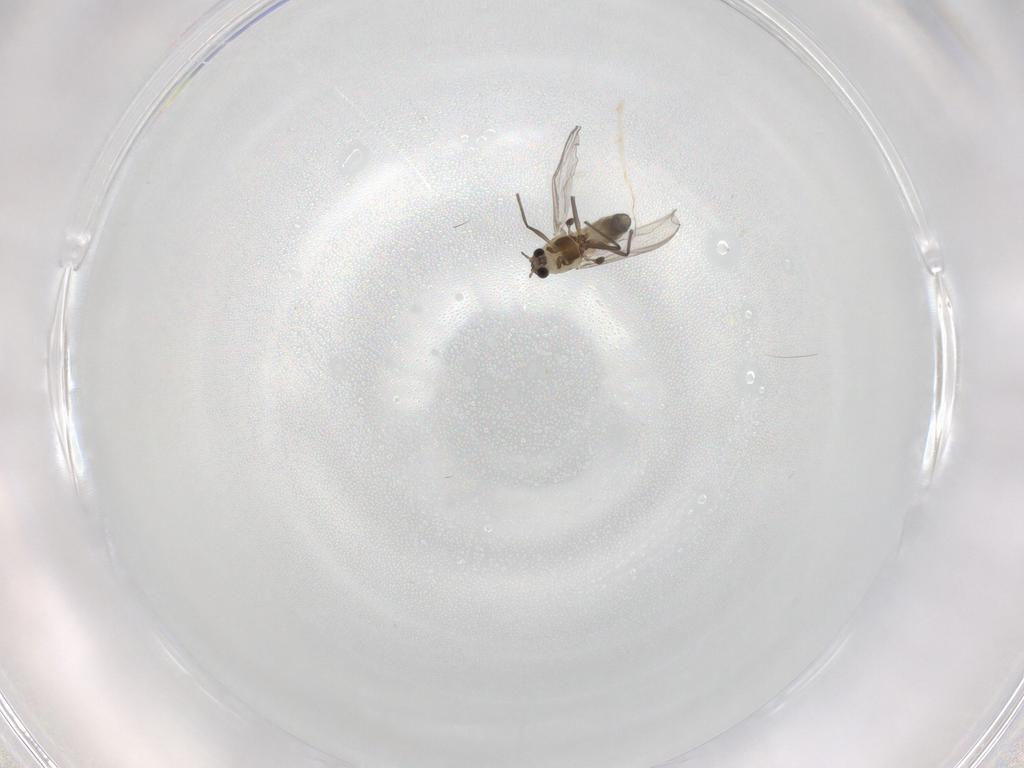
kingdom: Animalia
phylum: Arthropoda
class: Insecta
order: Diptera
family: Chironomidae
